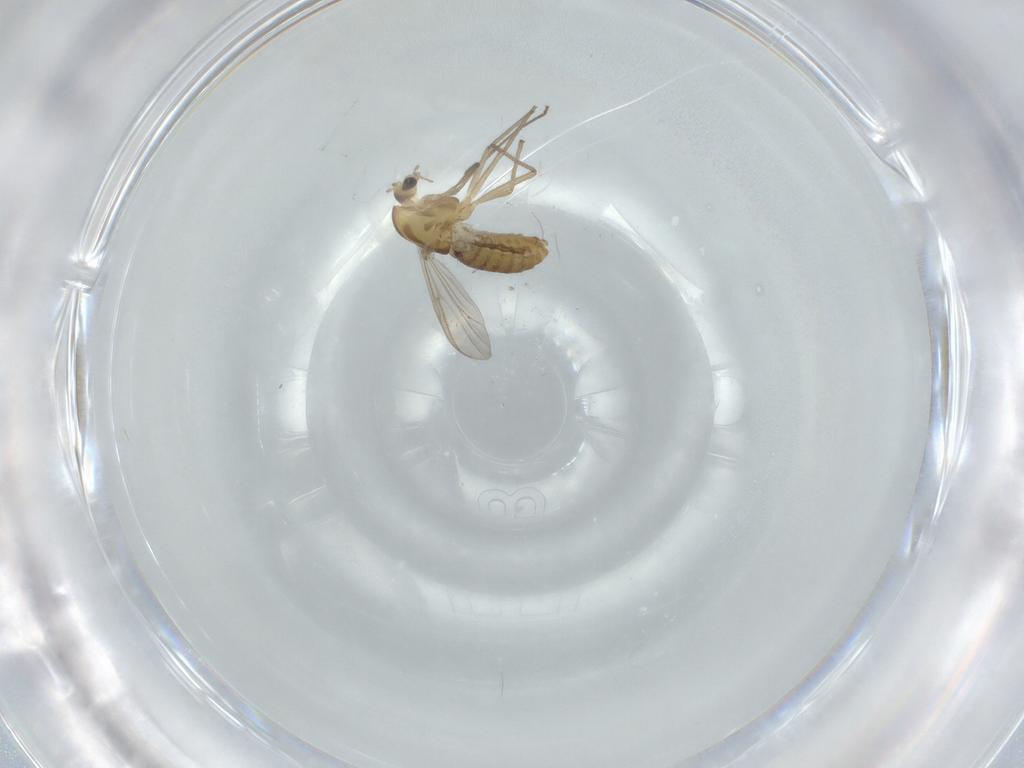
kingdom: Animalia
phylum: Arthropoda
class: Insecta
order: Diptera
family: Chironomidae
